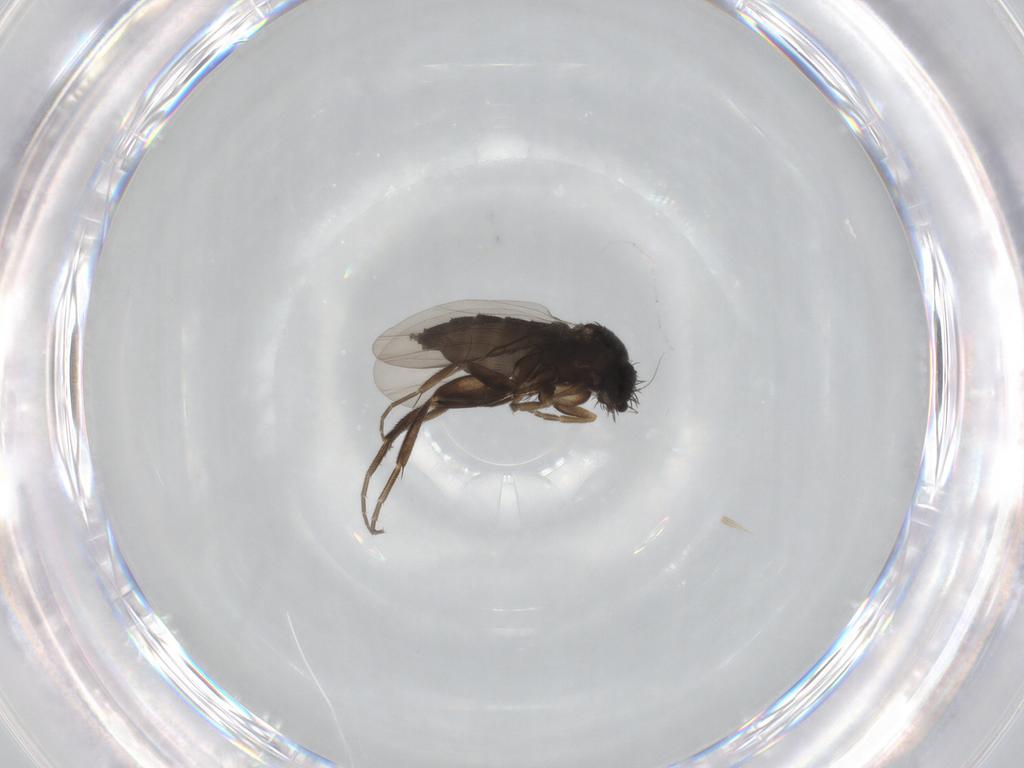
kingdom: Animalia
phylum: Arthropoda
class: Insecta
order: Diptera
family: Phoridae
